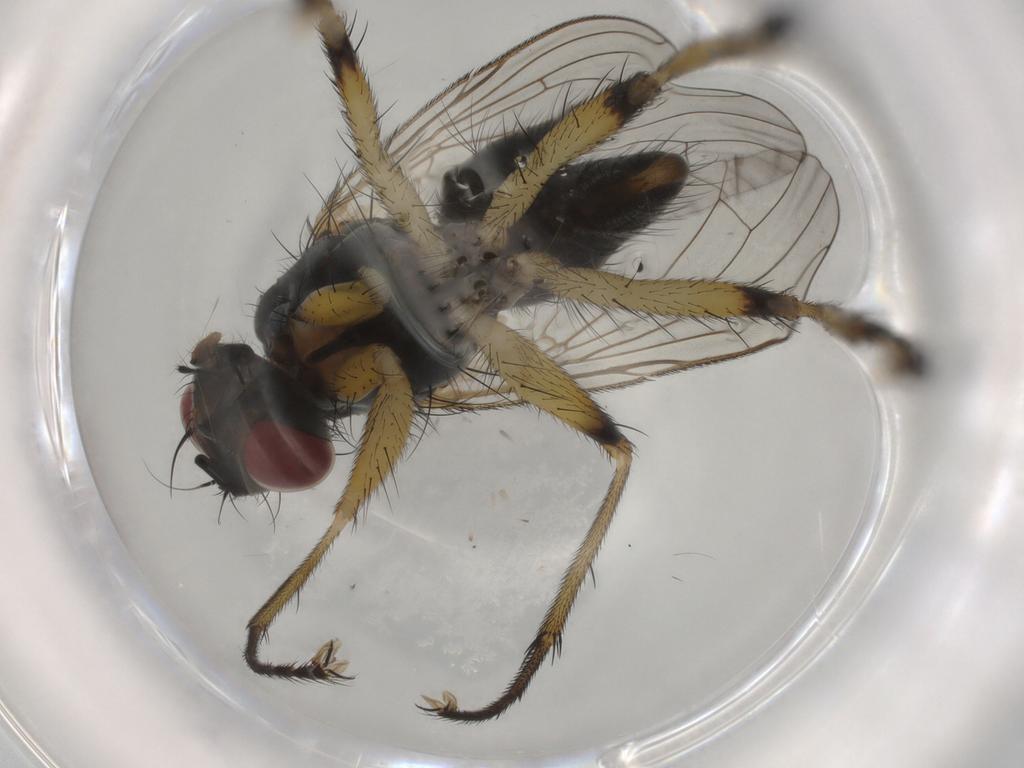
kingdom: Animalia
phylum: Arthropoda
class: Insecta
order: Diptera
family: Muscidae
